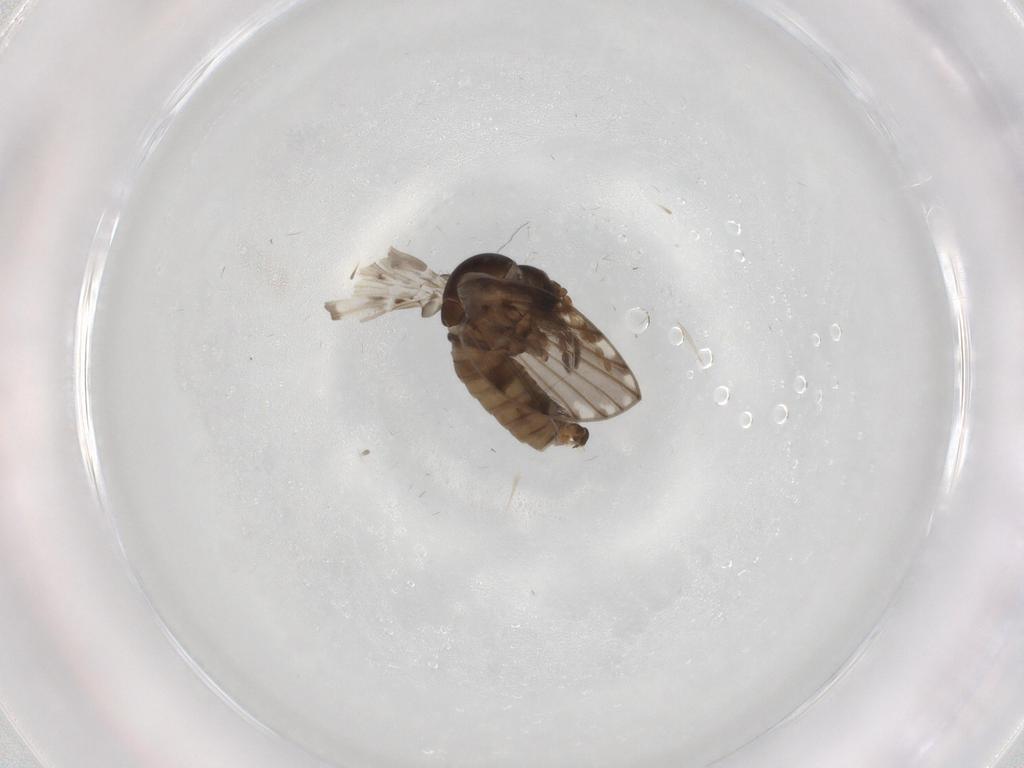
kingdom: Animalia
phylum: Arthropoda
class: Insecta
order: Diptera
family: Psychodidae
